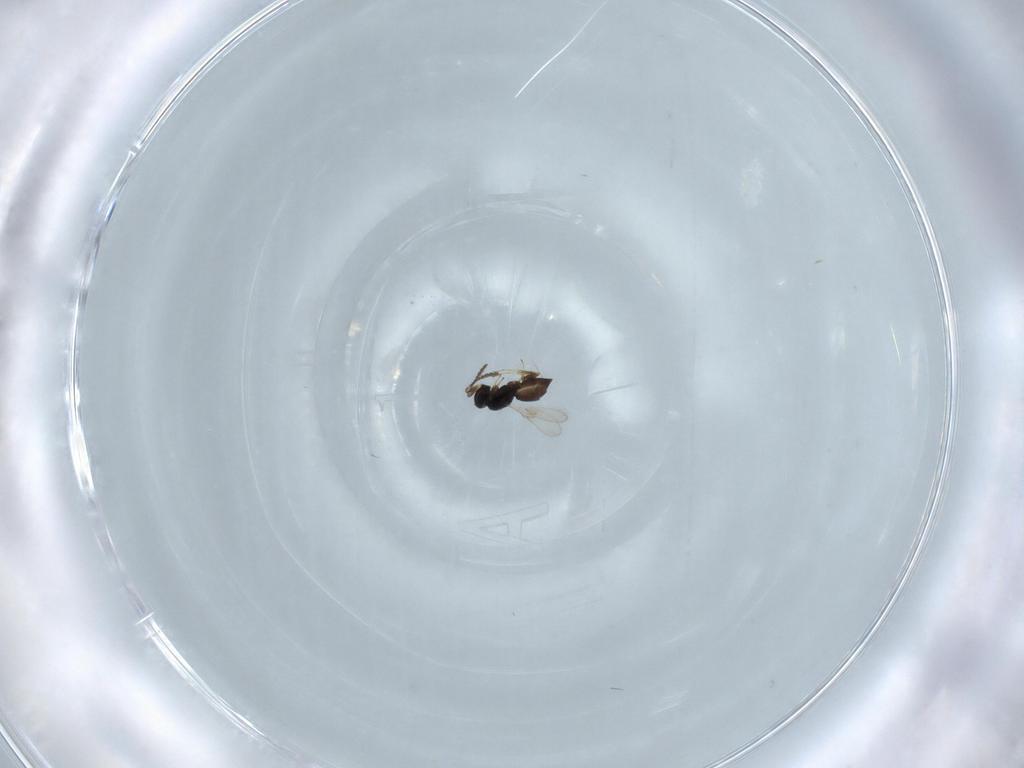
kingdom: Animalia
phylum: Arthropoda
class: Insecta
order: Hymenoptera
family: Scelionidae
